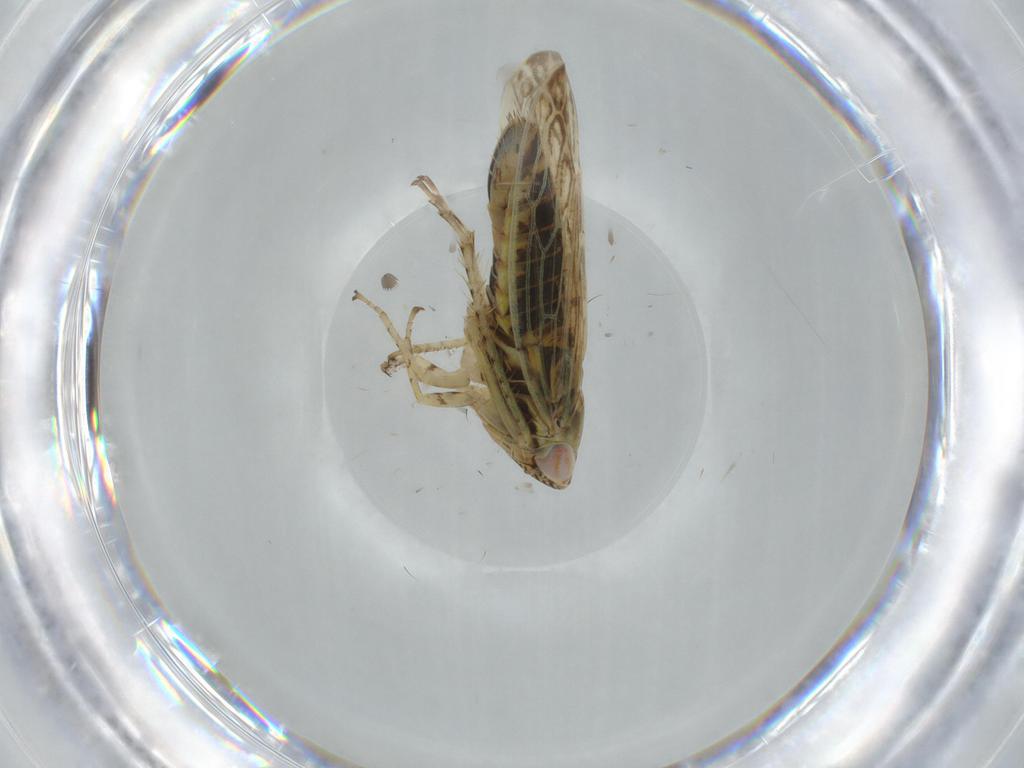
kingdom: Animalia
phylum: Arthropoda
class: Insecta
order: Hemiptera
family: Cicadellidae
